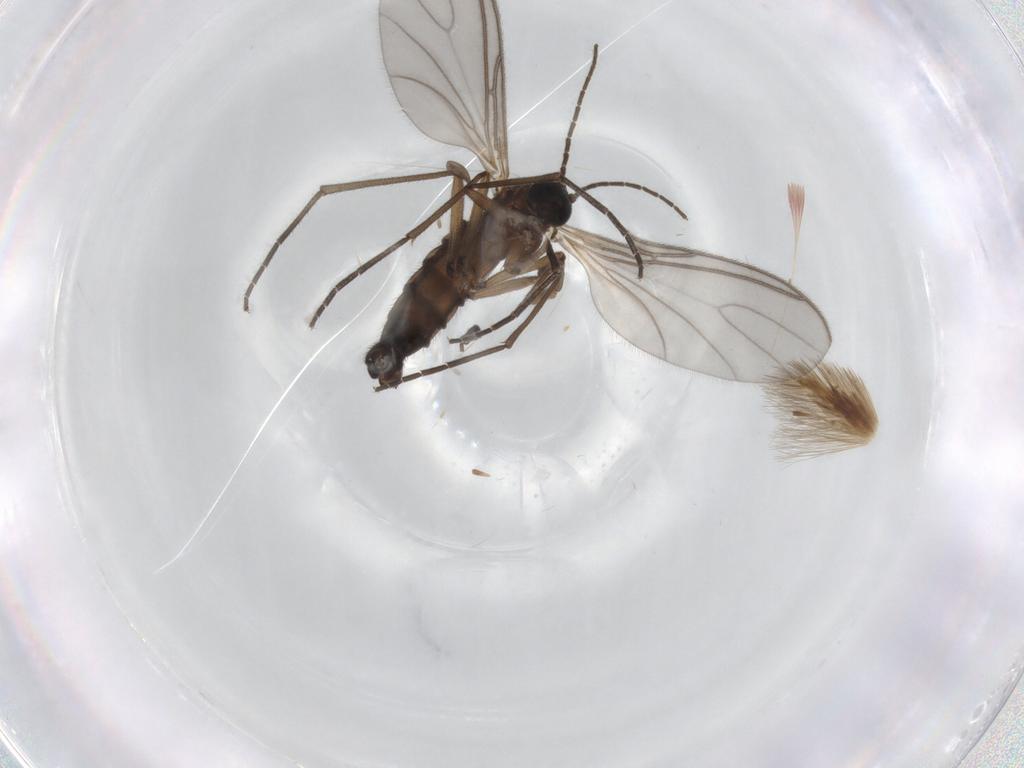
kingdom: Animalia
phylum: Arthropoda
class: Insecta
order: Diptera
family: Sciaridae
